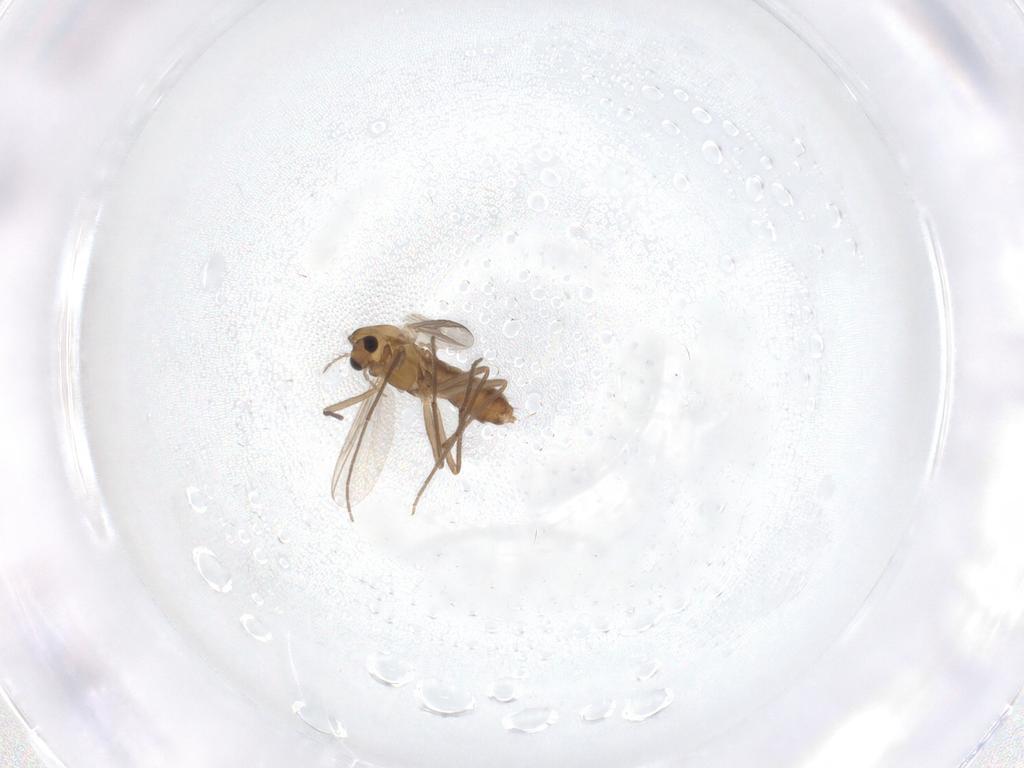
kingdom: Animalia
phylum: Arthropoda
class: Insecta
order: Diptera
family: Chironomidae
